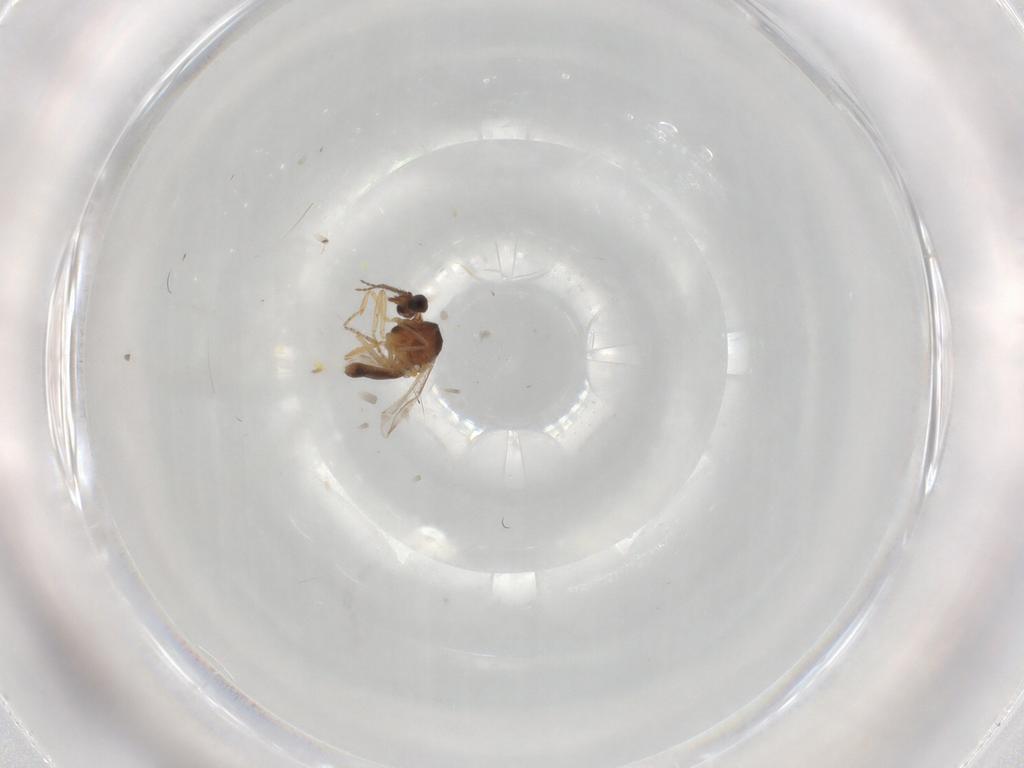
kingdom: Animalia
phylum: Arthropoda
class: Insecta
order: Diptera
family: Ceratopogonidae
